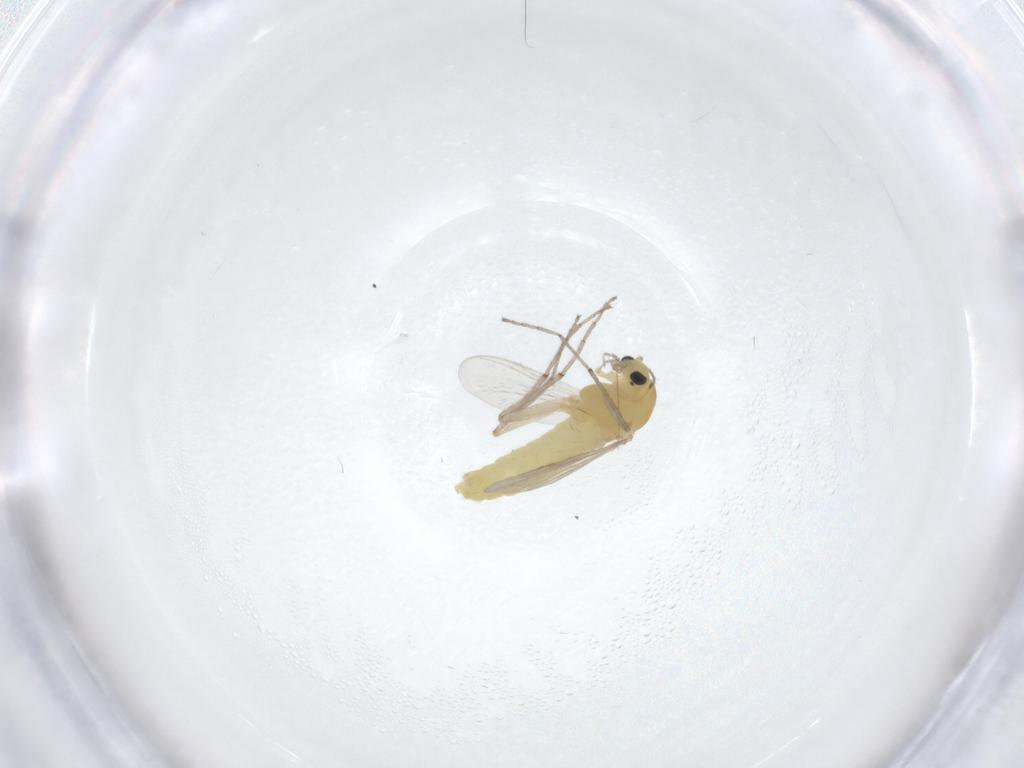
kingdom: Animalia
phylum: Arthropoda
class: Insecta
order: Diptera
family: Chironomidae
